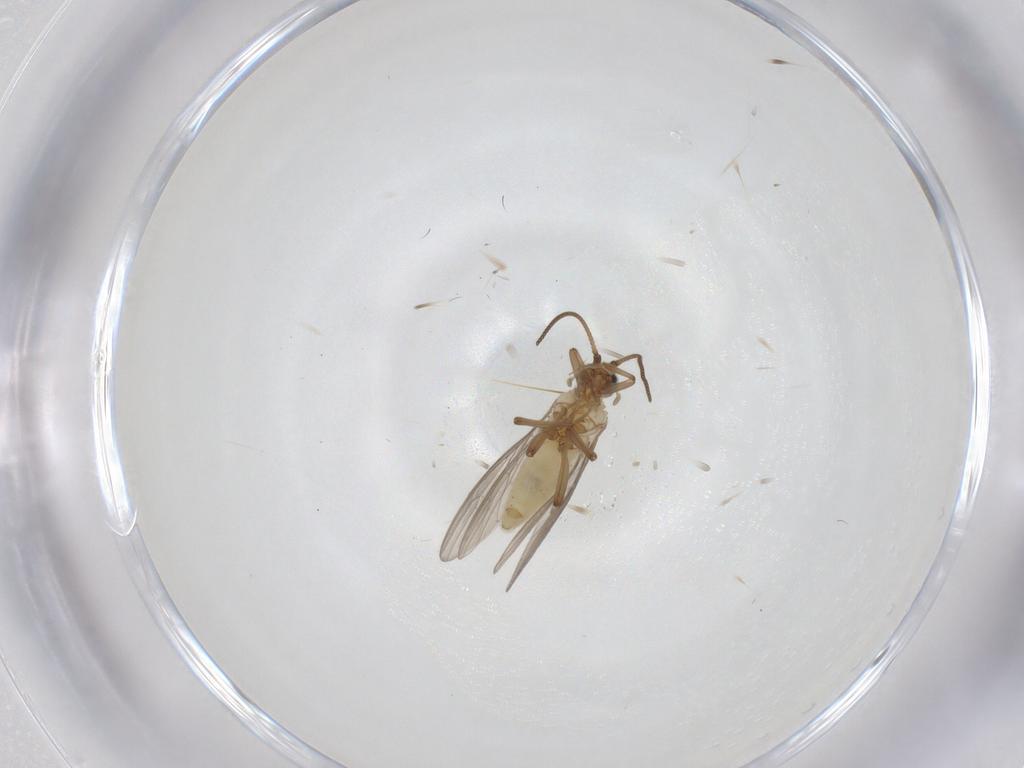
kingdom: Animalia
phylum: Arthropoda
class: Insecta
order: Neuroptera
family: Coniopterygidae
